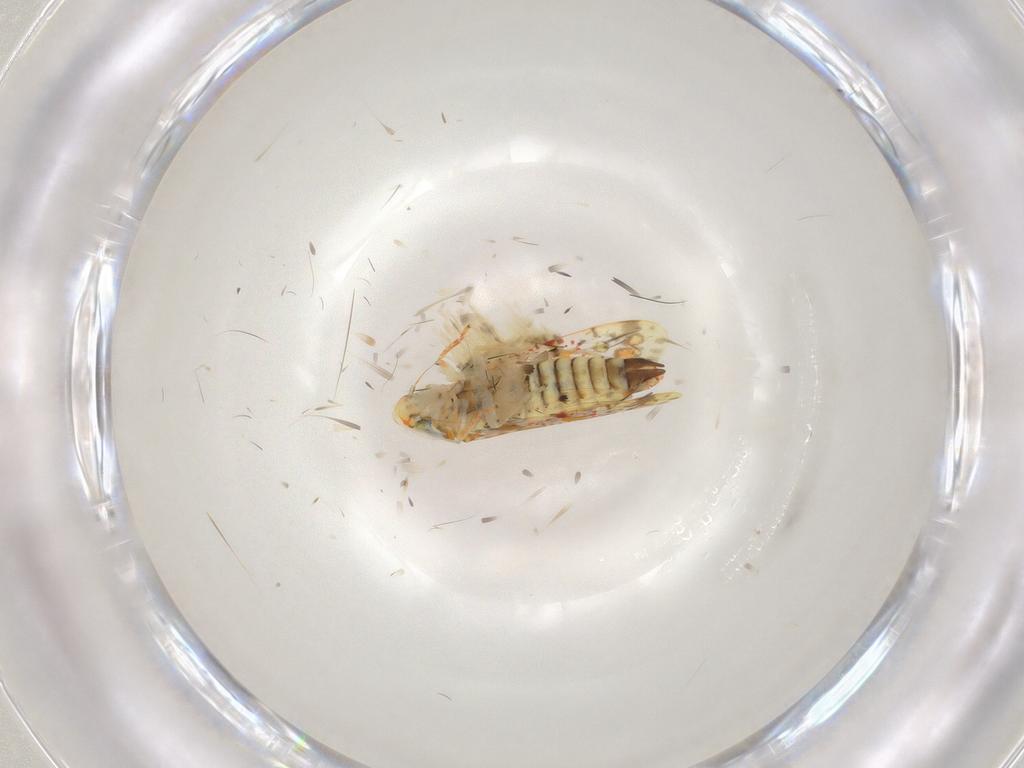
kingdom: Animalia
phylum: Arthropoda
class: Insecta
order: Hemiptera
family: Cicadellidae
